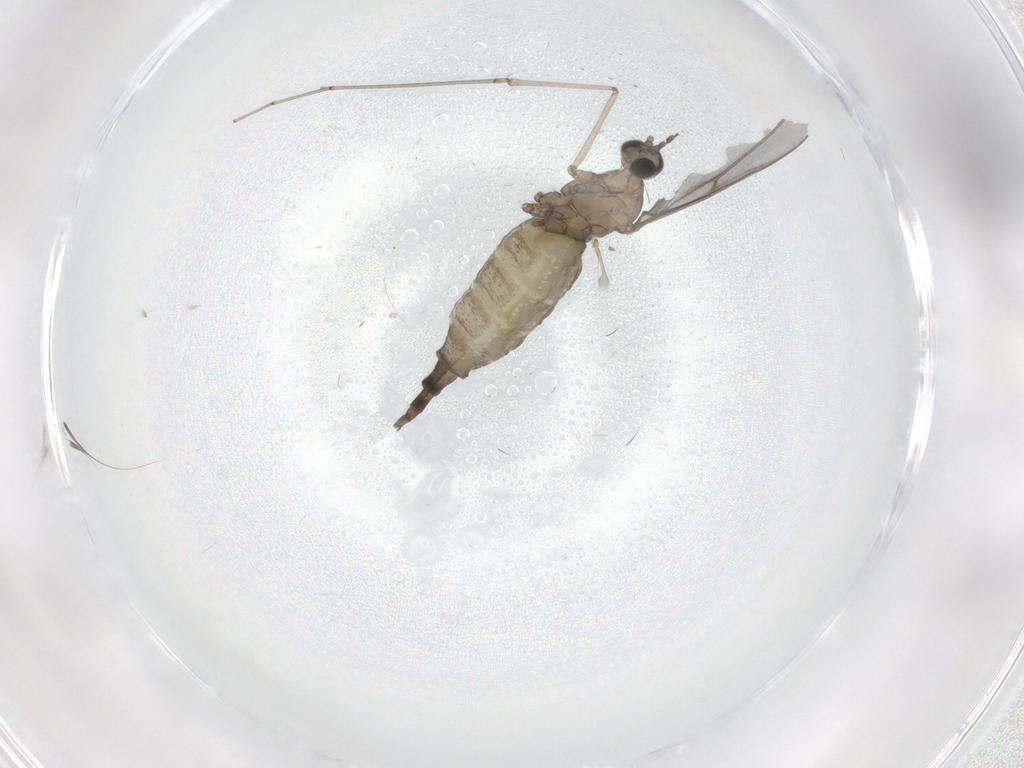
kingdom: Animalia
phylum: Arthropoda
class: Insecta
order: Diptera
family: Cecidomyiidae
